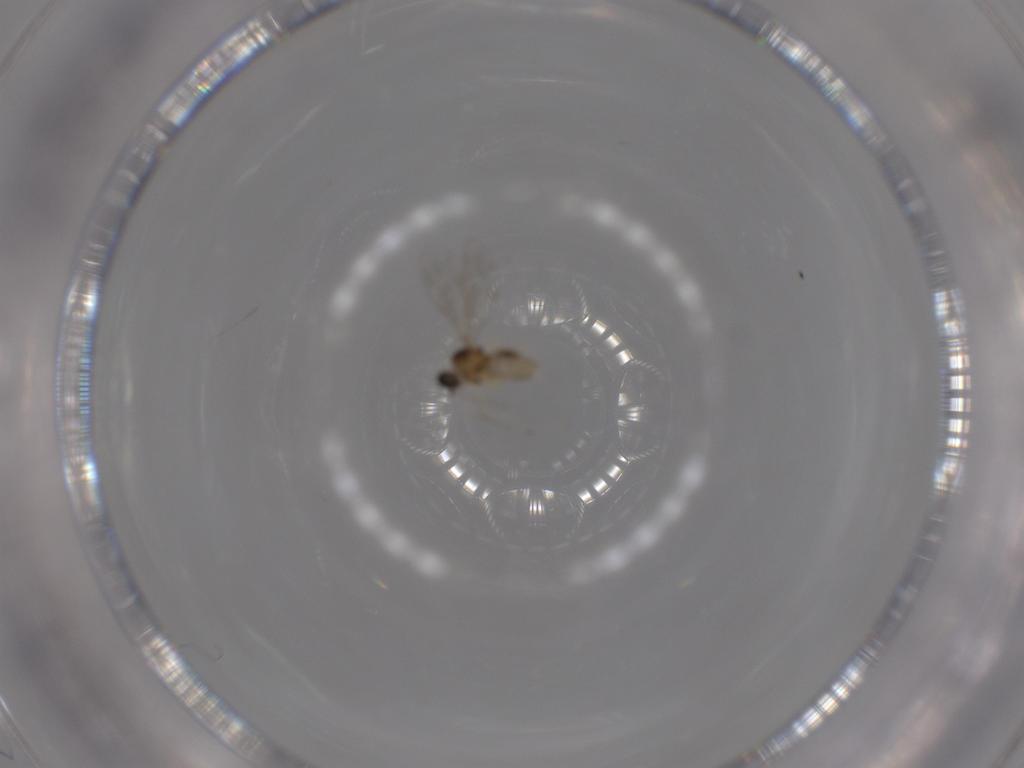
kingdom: Animalia
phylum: Arthropoda
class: Insecta
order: Diptera
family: Cecidomyiidae
